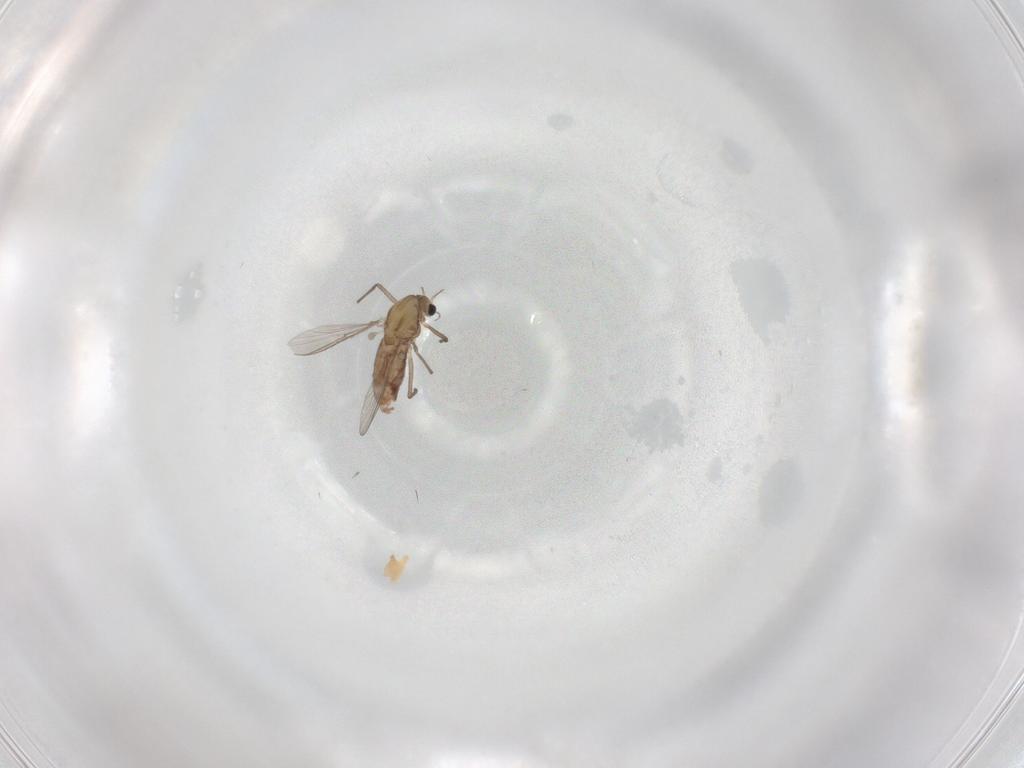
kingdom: Animalia
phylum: Arthropoda
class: Insecta
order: Diptera
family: Chironomidae
